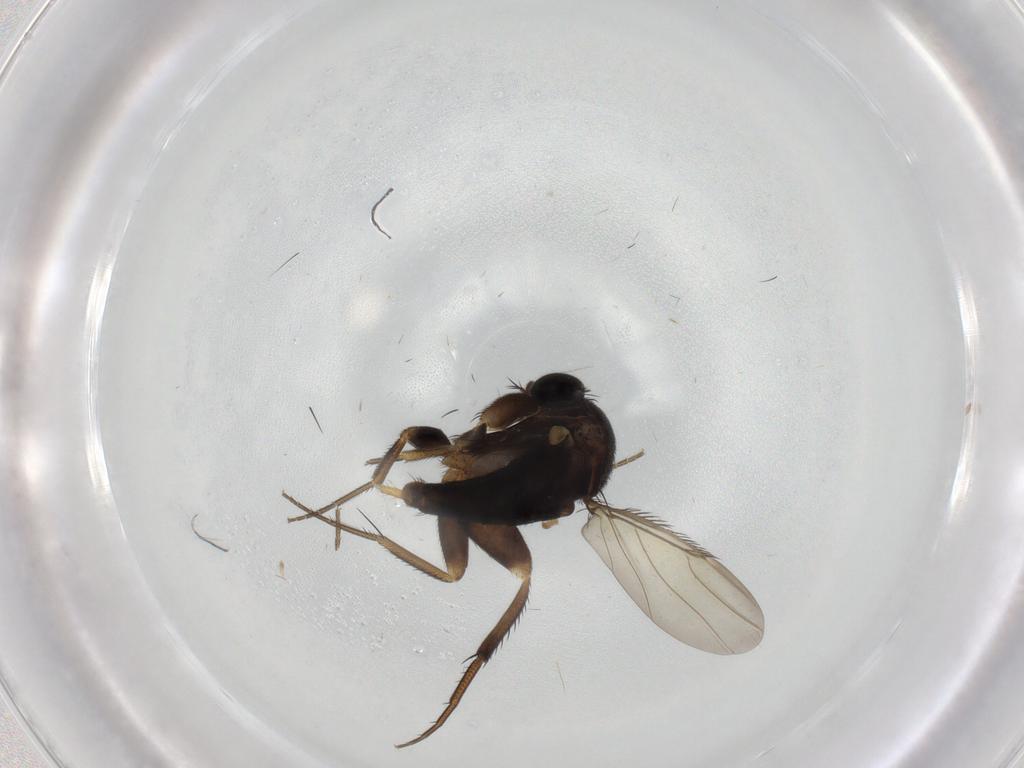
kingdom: Animalia
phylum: Arthropoda
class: Insecta
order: Diptera
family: Phoridae
